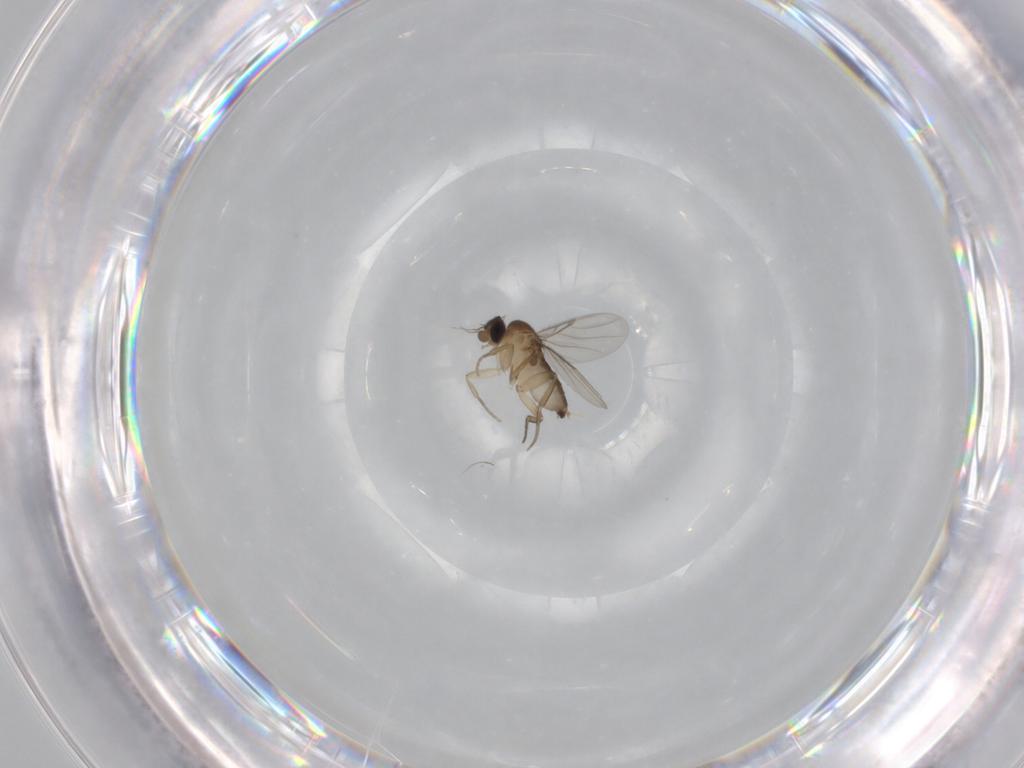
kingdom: Animalia
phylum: Arthropoda
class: Insecta
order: Diptera
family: Phoridae
